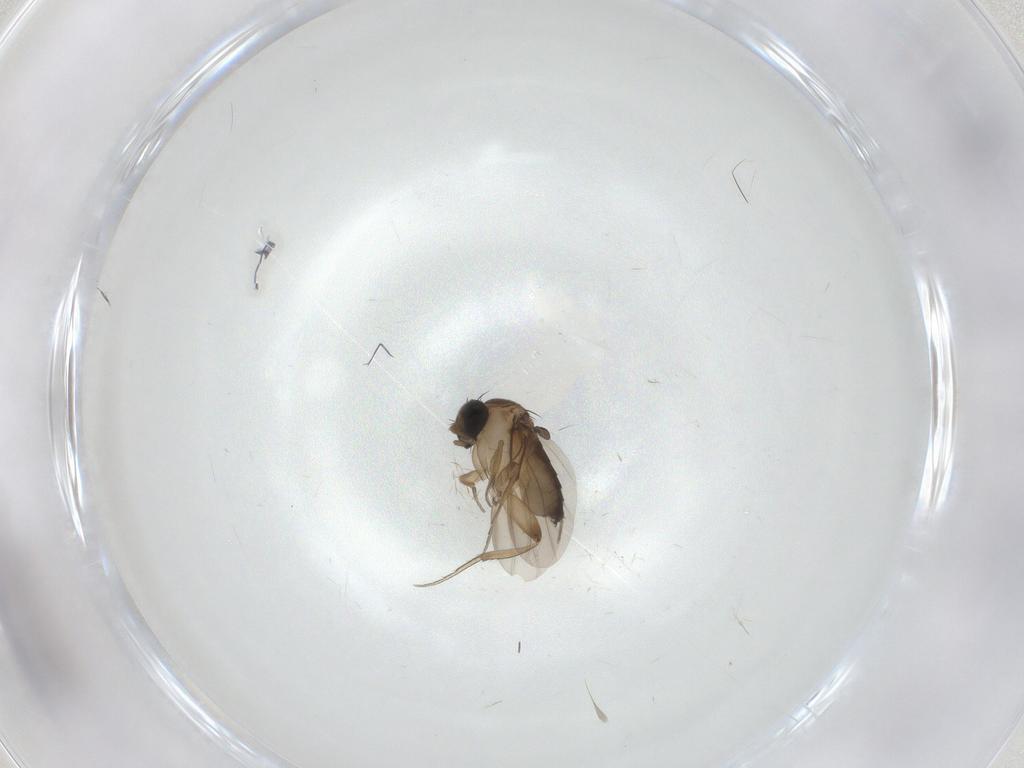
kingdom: Animalia
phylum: Arthropoda
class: Insecta
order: Diptera
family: Phoridae
